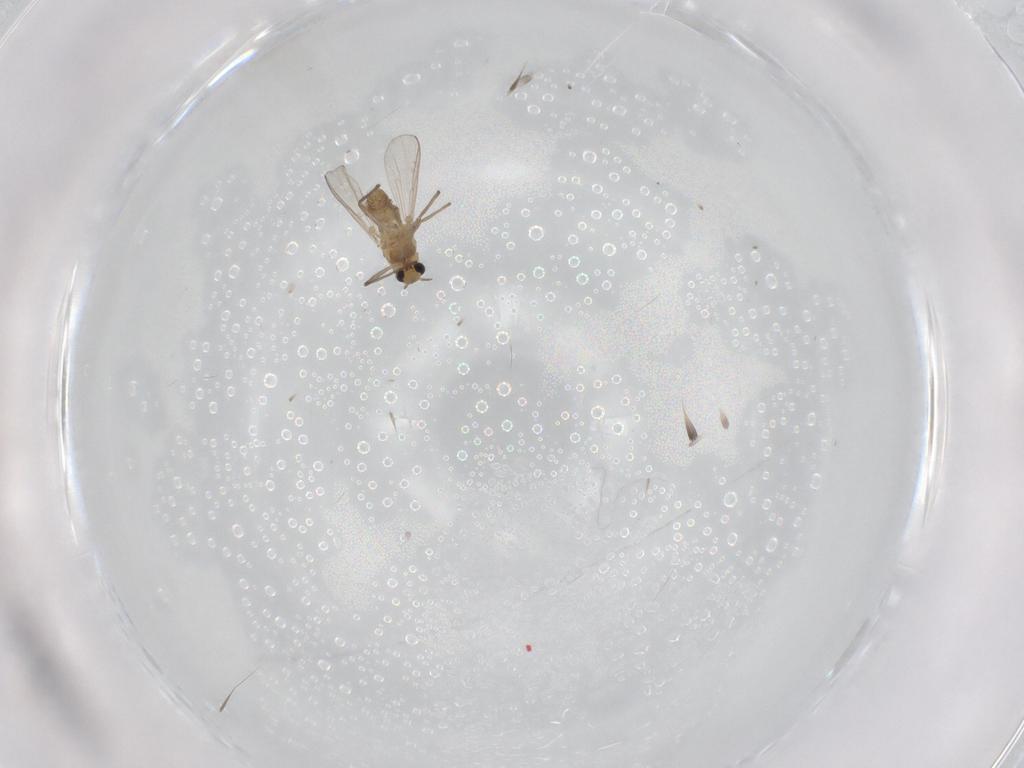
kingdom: Animalia
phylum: Arthropoda
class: Insecta
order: Diptera
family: Chironomidae
